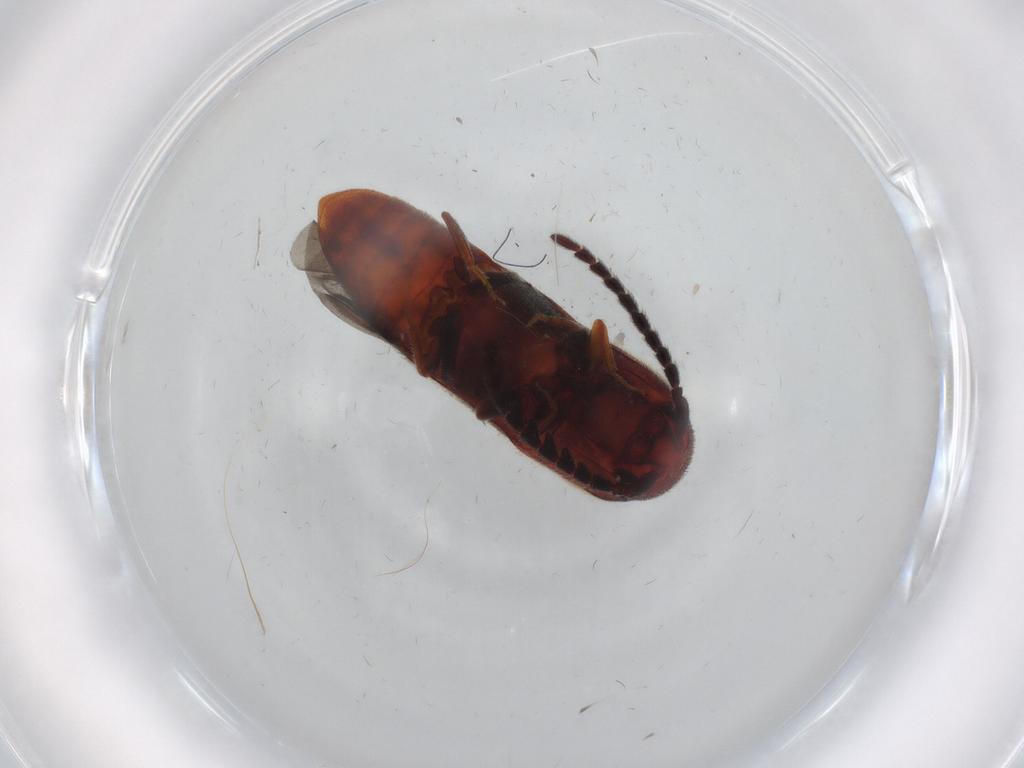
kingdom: Animalia
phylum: Arthropoda
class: Insecta
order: Coleoptera
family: Eucnemidae
